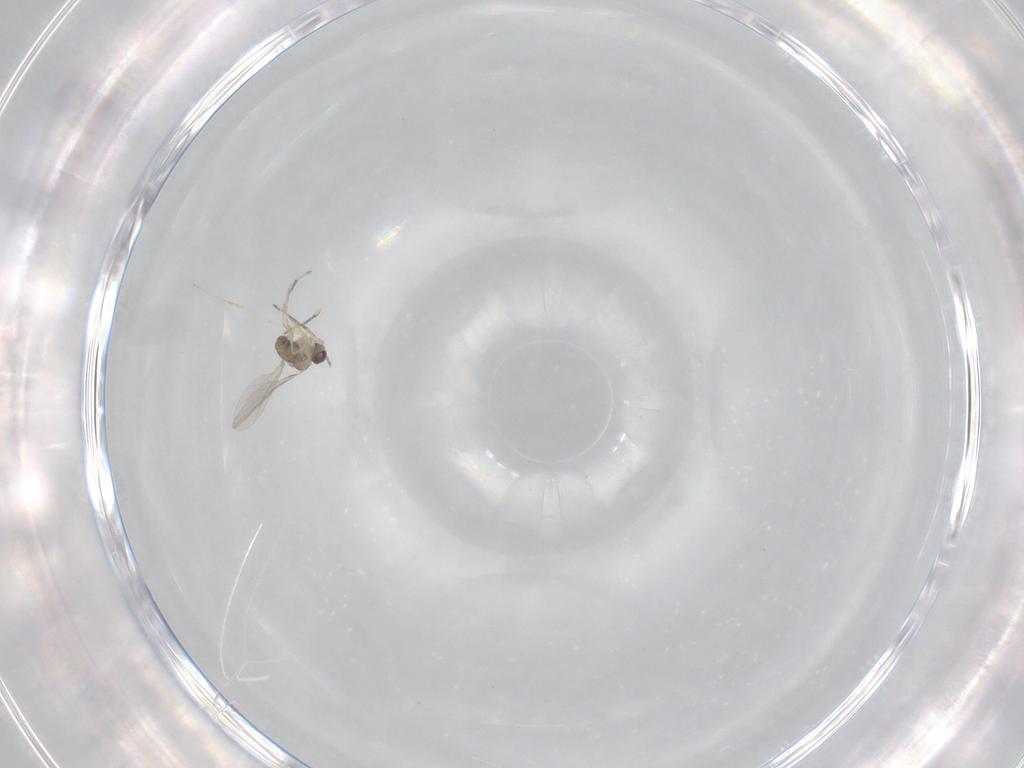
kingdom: Animalia
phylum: Arthropoda
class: Insecta
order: Diptera
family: Cecidomyiidae
